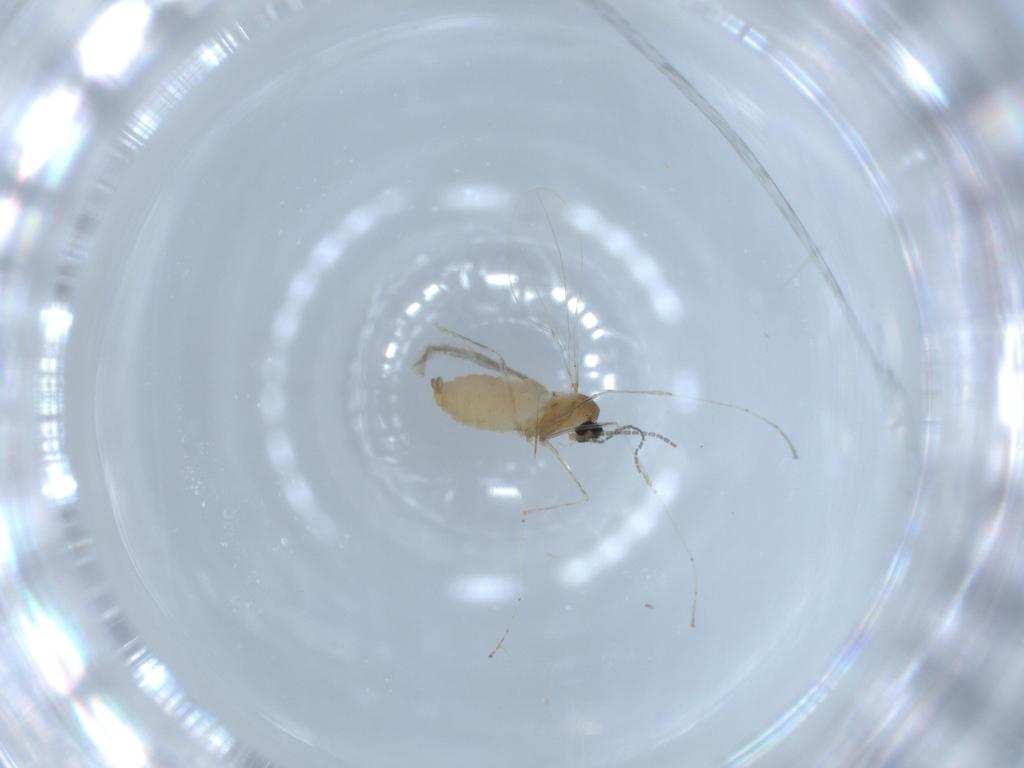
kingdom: Animalia
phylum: Arthropoda
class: Insecta
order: Diptera
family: Cecidomyiidae
